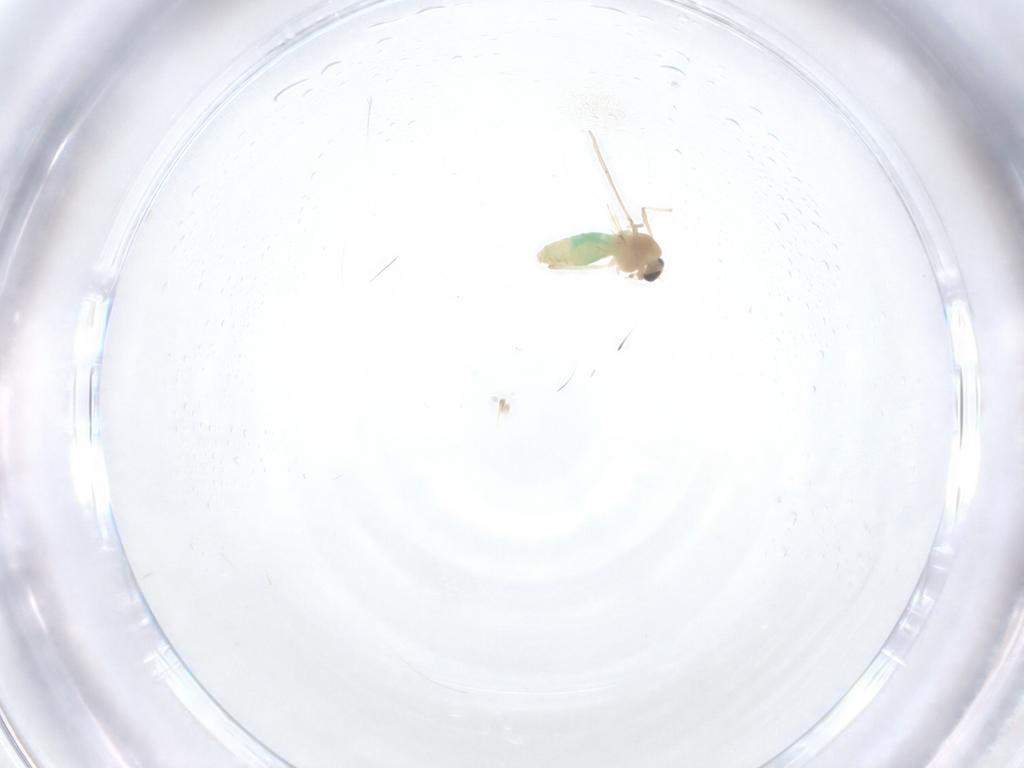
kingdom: Animalia
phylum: Arthropoda
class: Insecta
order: Diptera
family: Chironomidae
